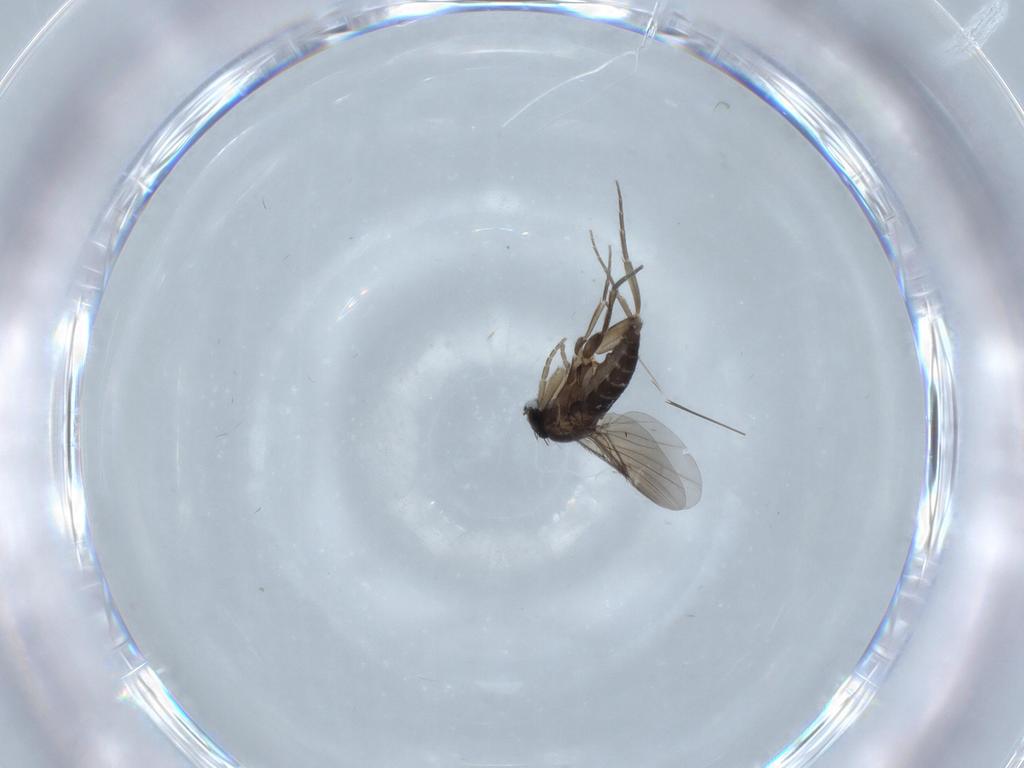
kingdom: Animalia
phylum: Arthropoda
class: Insecta
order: Diptera
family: Phoridae
